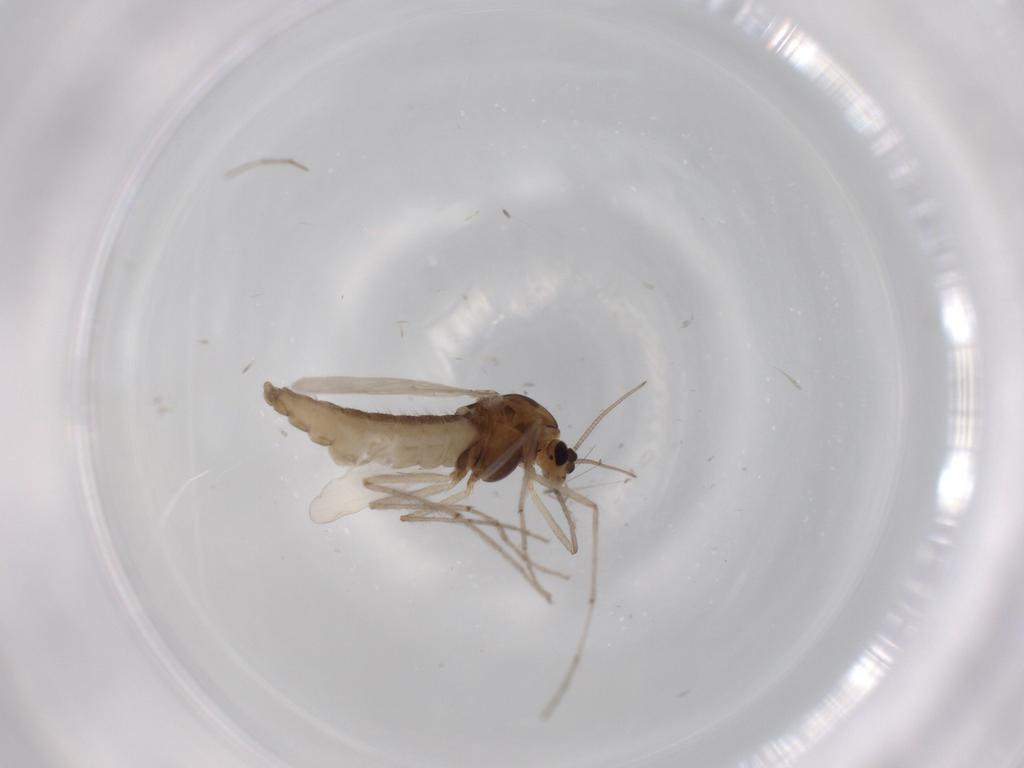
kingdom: Animalia
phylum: Arthropoda
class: Insecta
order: Diptera
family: Sphaeroceridae
